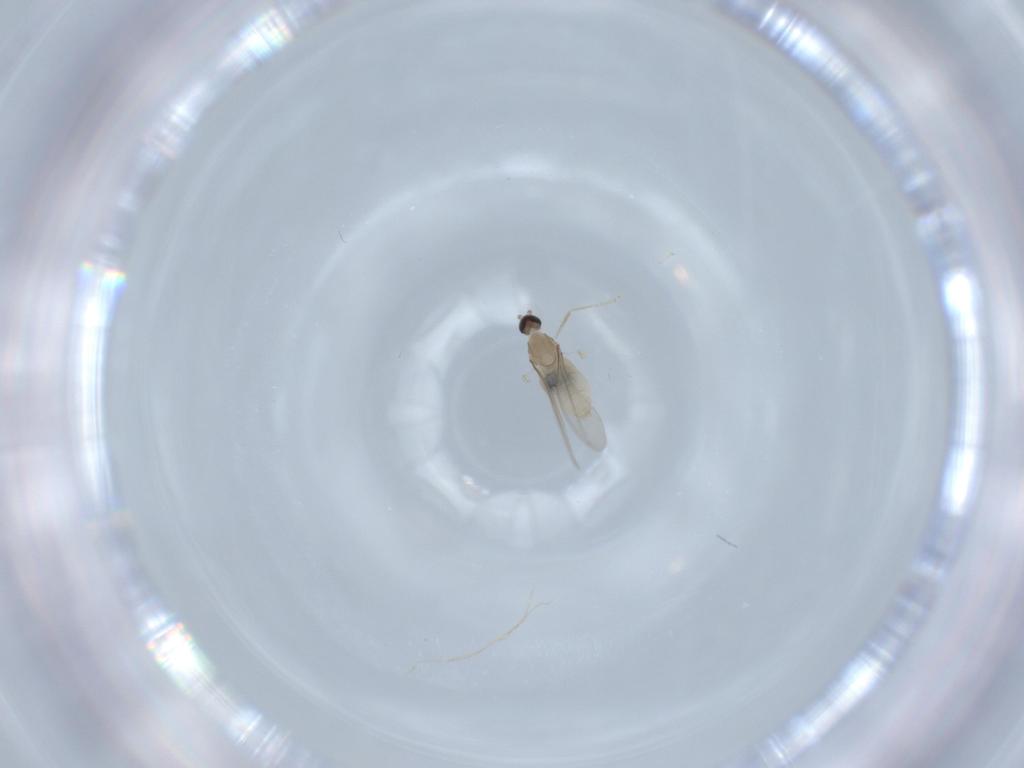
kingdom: Animalia
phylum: Arthropoda
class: Insecta
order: Diptera
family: Cecidomyiidae
